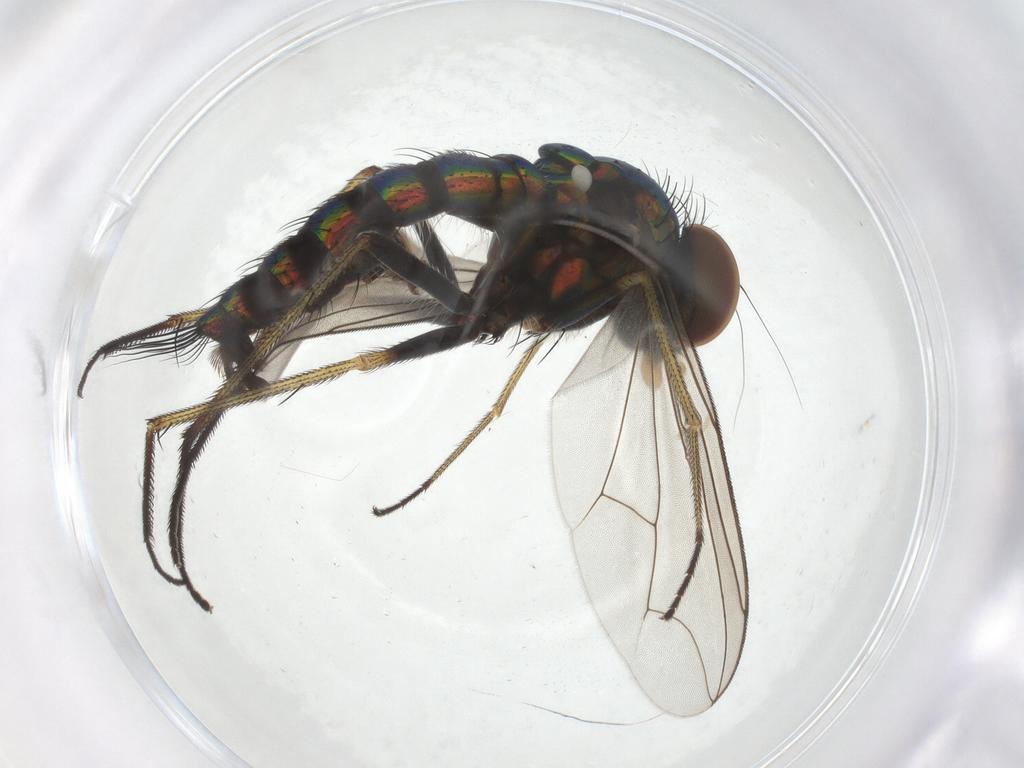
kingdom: Animalia
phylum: Arthropoda
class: Insecta
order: Diptera
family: Dolichopodidae
